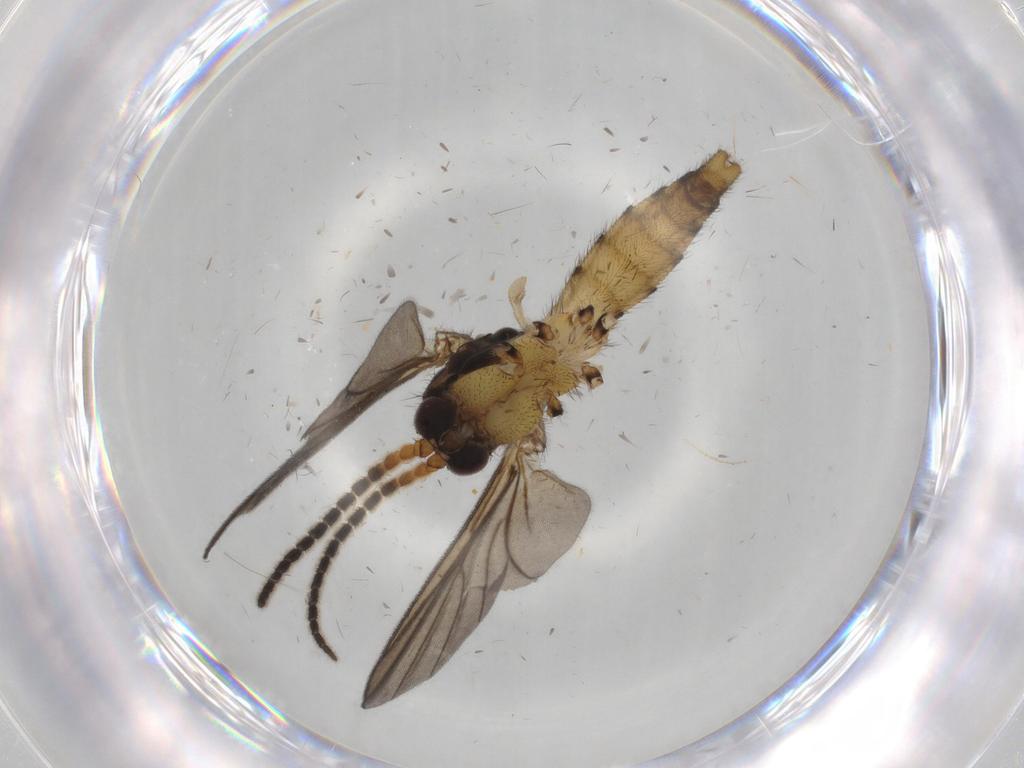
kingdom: Animalia
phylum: Arthropoda
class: Insecta
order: Diptera
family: Phoridae
